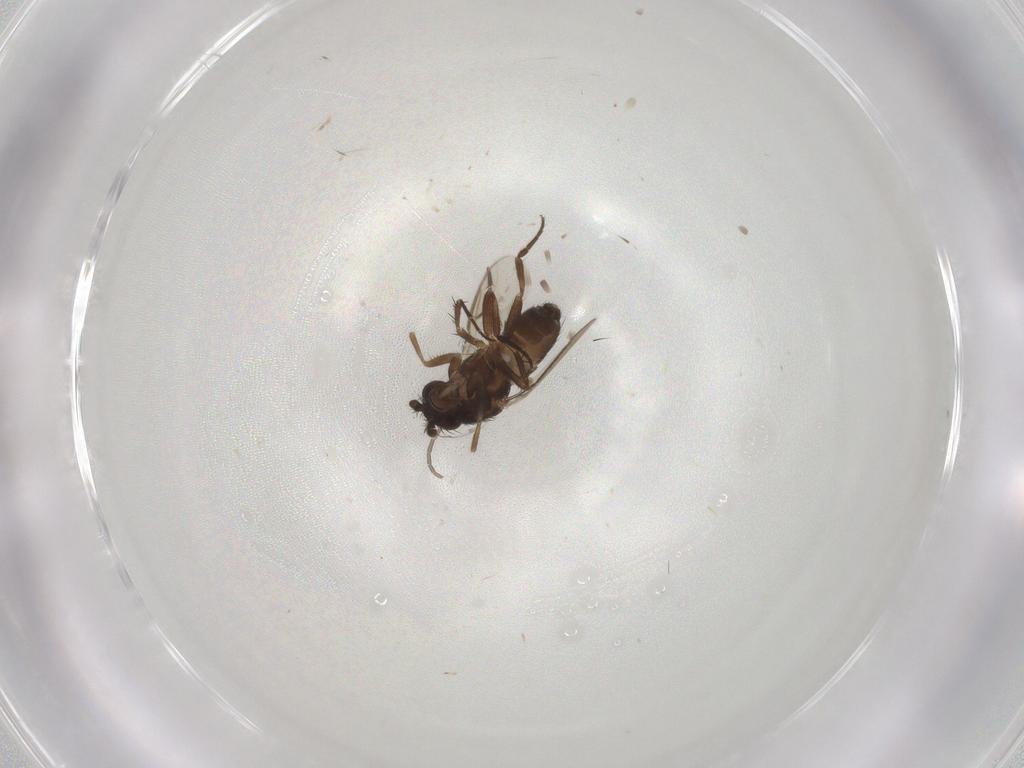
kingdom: Animalia
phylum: Arthropoda
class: Insecta
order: Diptera
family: Sphaeroceridae
